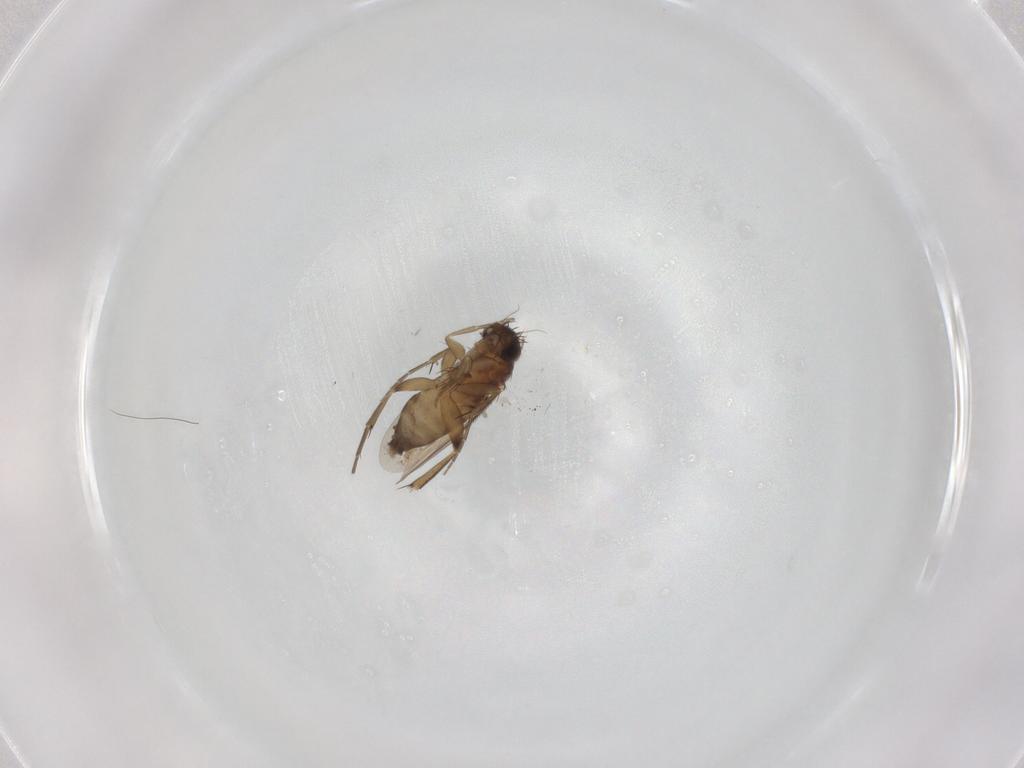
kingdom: Animalia
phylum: Arthropoda
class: Insecta
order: Diptera
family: Phoridae
